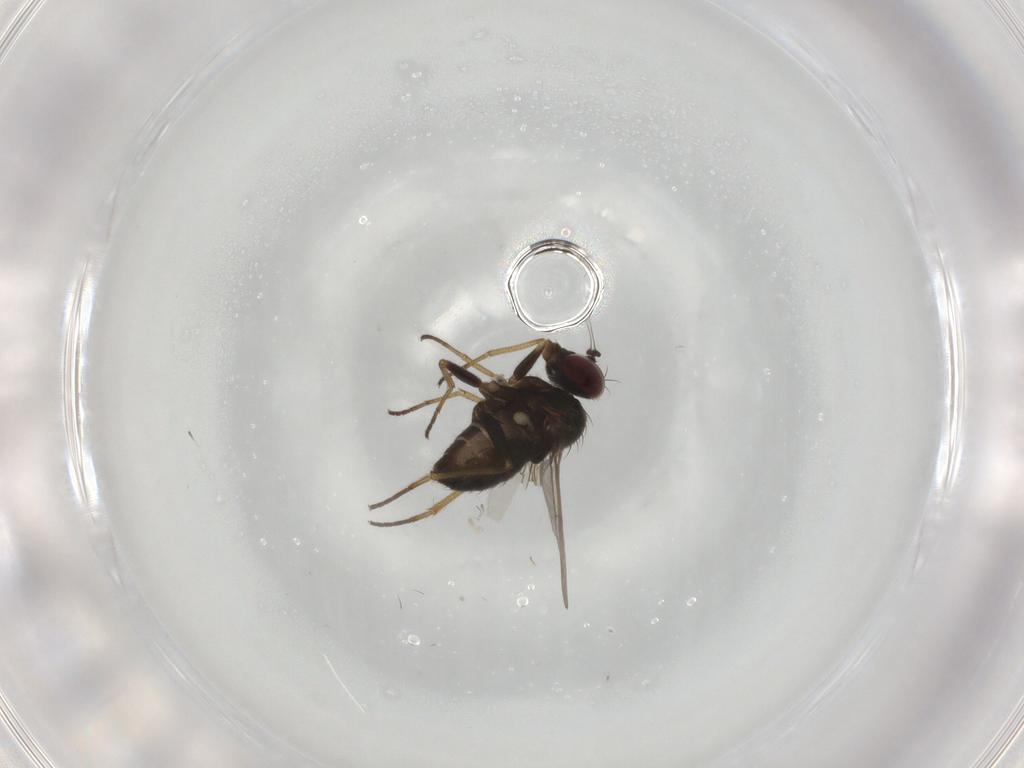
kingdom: Animalia
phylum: Arthropoda
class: Insecta
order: Diptera
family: Dolichopodidae
